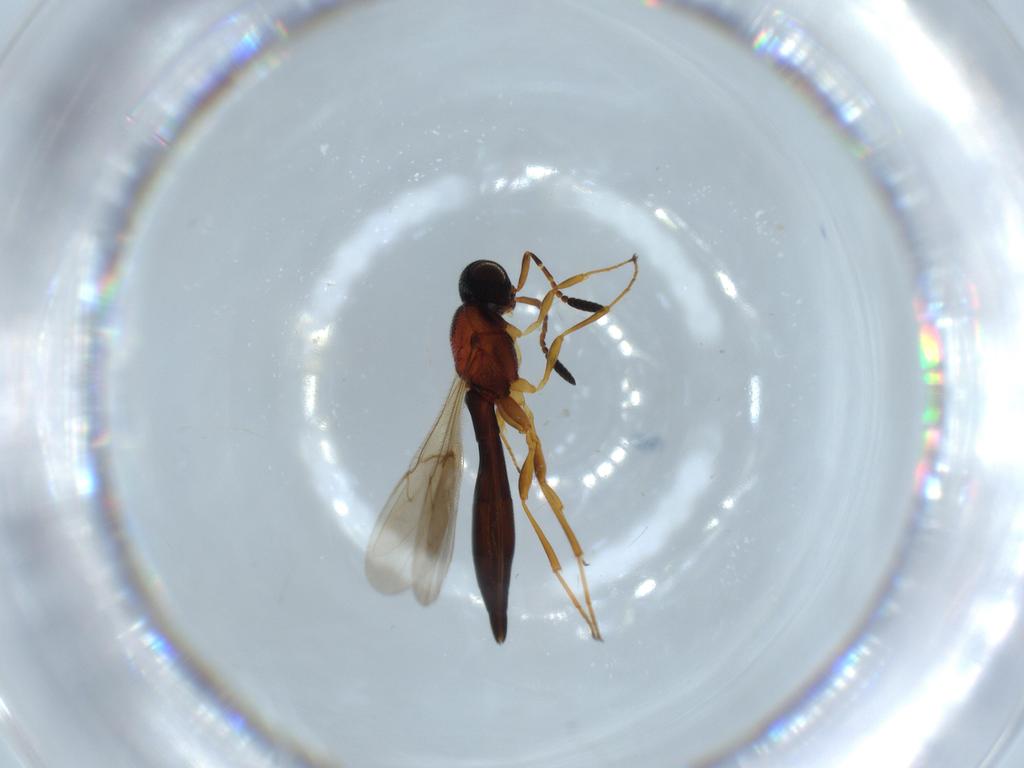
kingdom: Animalia
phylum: Arthropoda
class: Insecta
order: Hymenoptera
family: Scelionidae
